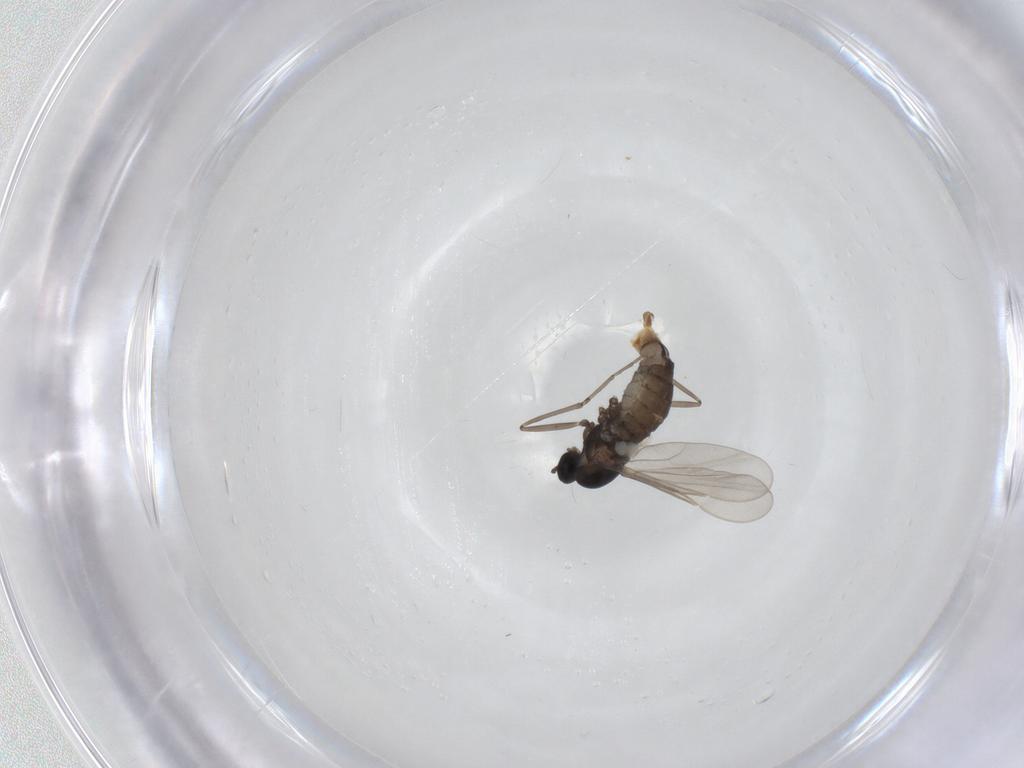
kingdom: Animalia
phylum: Arthropoda
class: Insecta
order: Diptera
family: Cecidomyiidae
